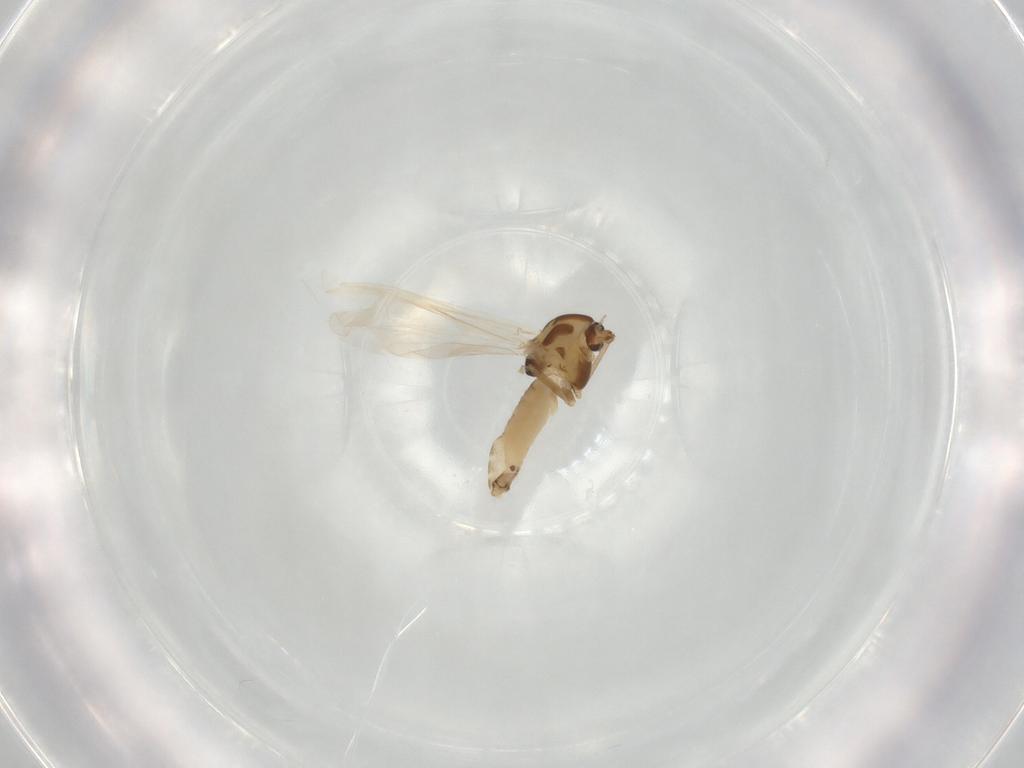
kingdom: Animalia
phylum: Arthropoda
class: Insecta
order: Diptera
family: Chironomidae
